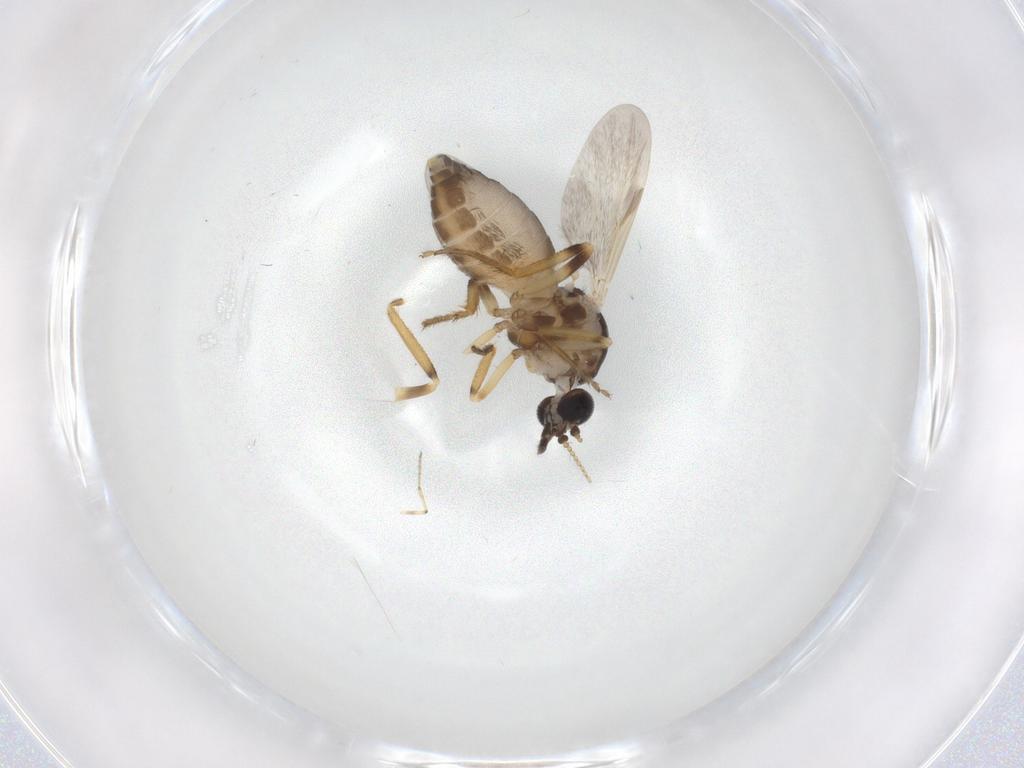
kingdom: Animalia
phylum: Arthropoda
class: Insecta
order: Diptera
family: Ceratopogonidae
